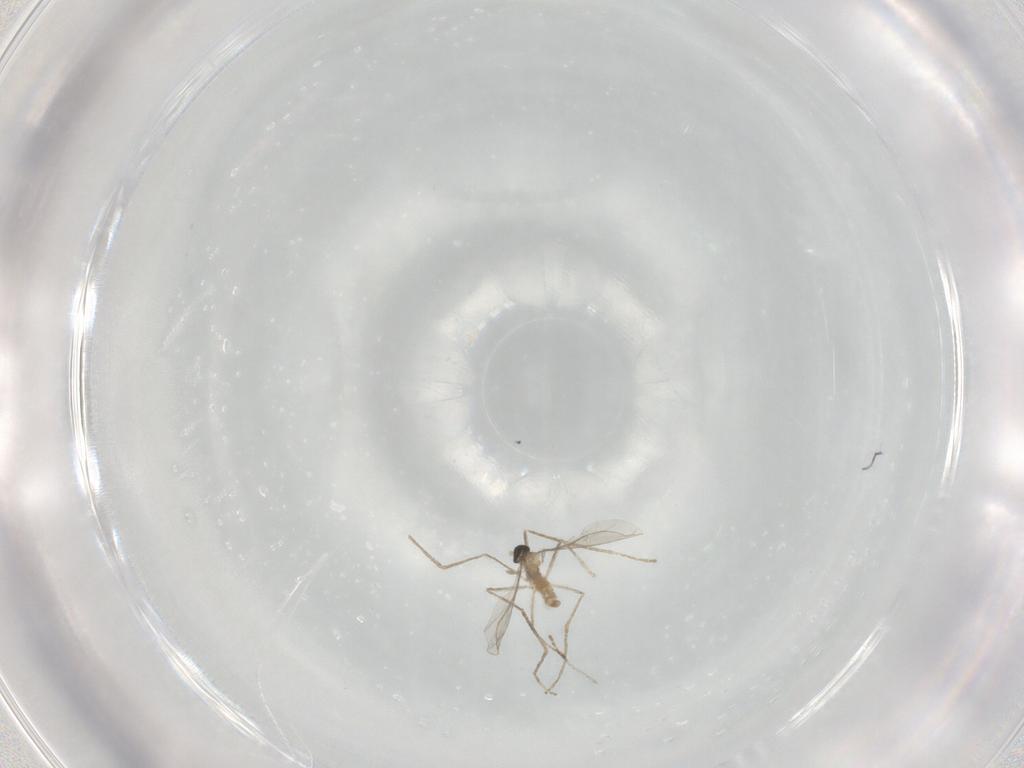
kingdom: Animalia
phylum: Arthropoda
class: Insecta
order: Diptera
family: Cecidomyiidae
